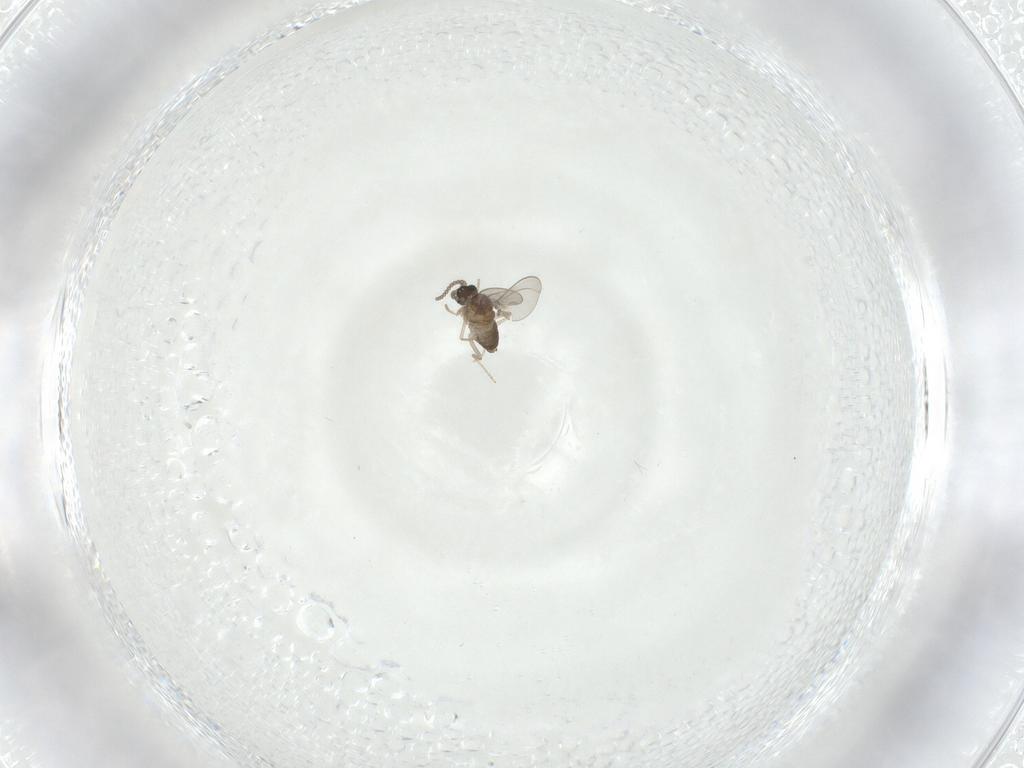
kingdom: Animalia
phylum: Arthropoda
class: Insecta
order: Diptera
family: Cecidomyiidae
